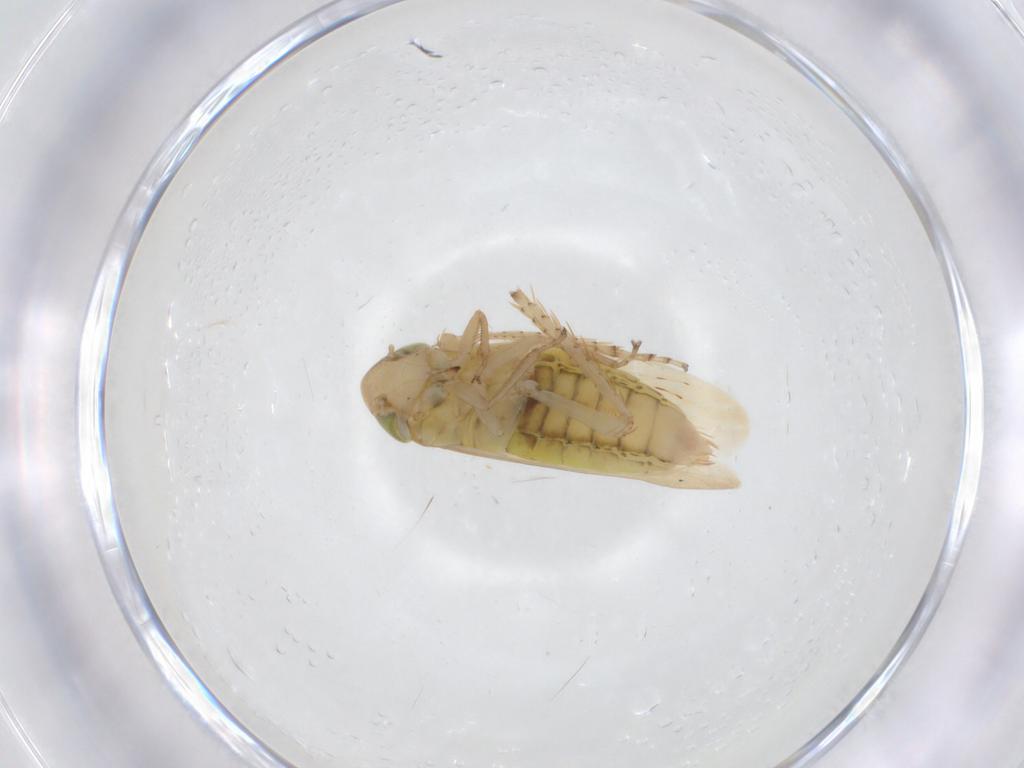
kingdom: Animalia
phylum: Arthropoda
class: Insecta
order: Hemiptera
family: Cicadellidae
